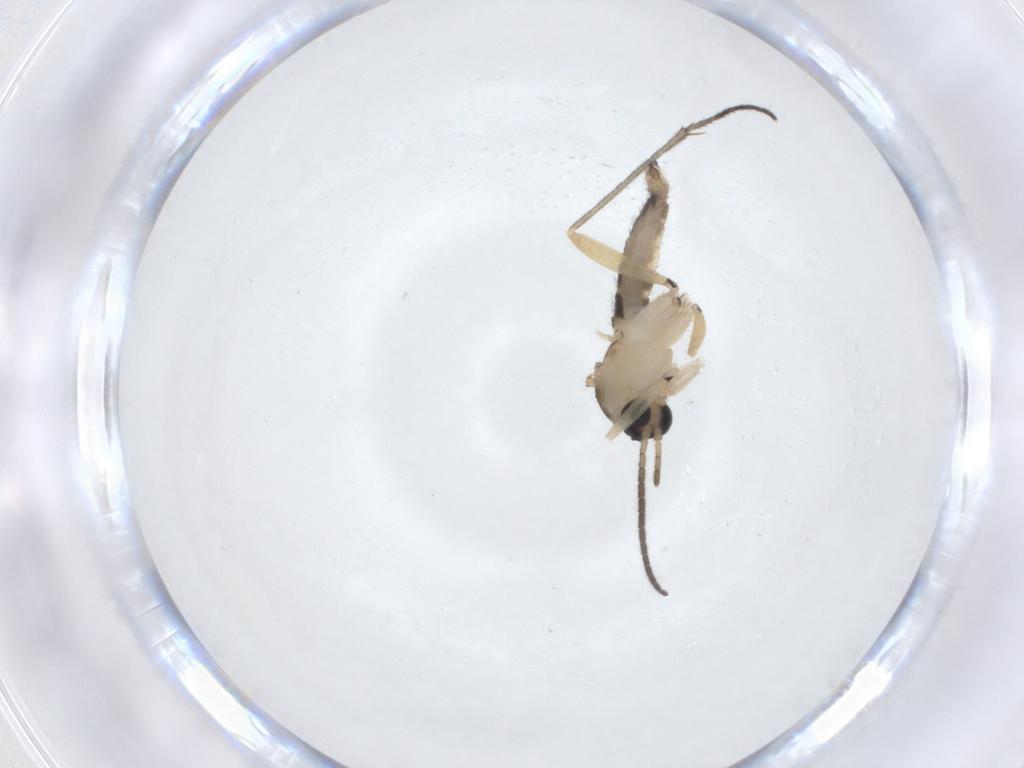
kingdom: Animalia
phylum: Arthropoda
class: Insecta
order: Diptera
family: Sciaridae
